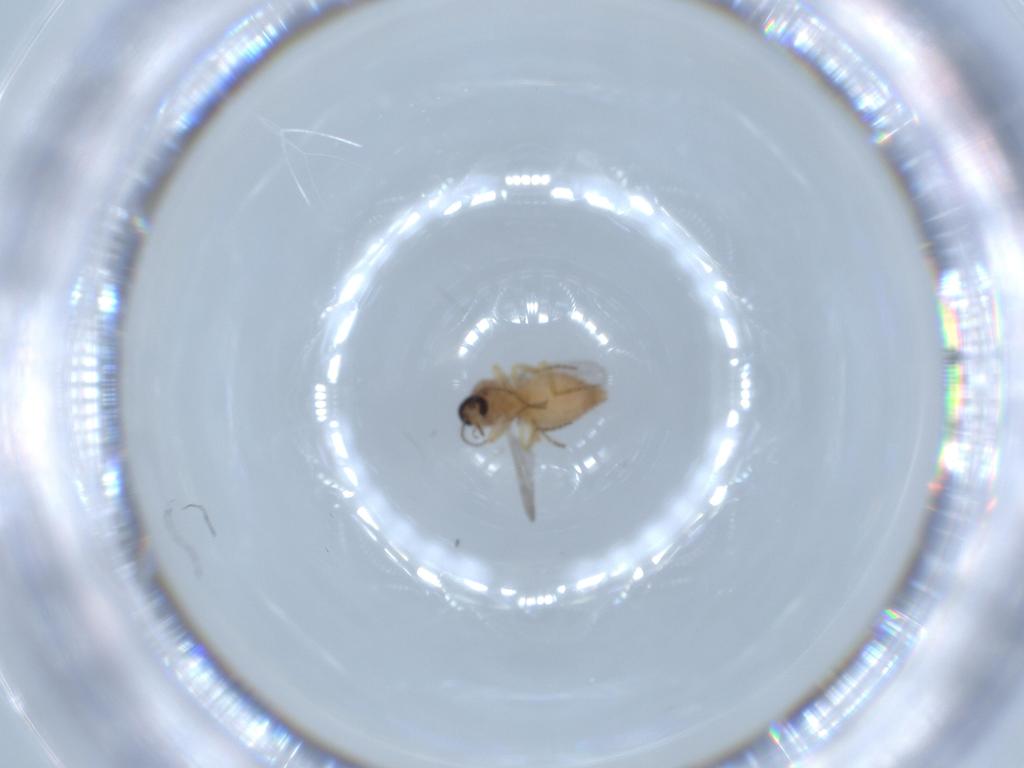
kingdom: Animalia
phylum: Arthropoda
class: Insecta
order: Diptera
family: Ceratopogonidae
